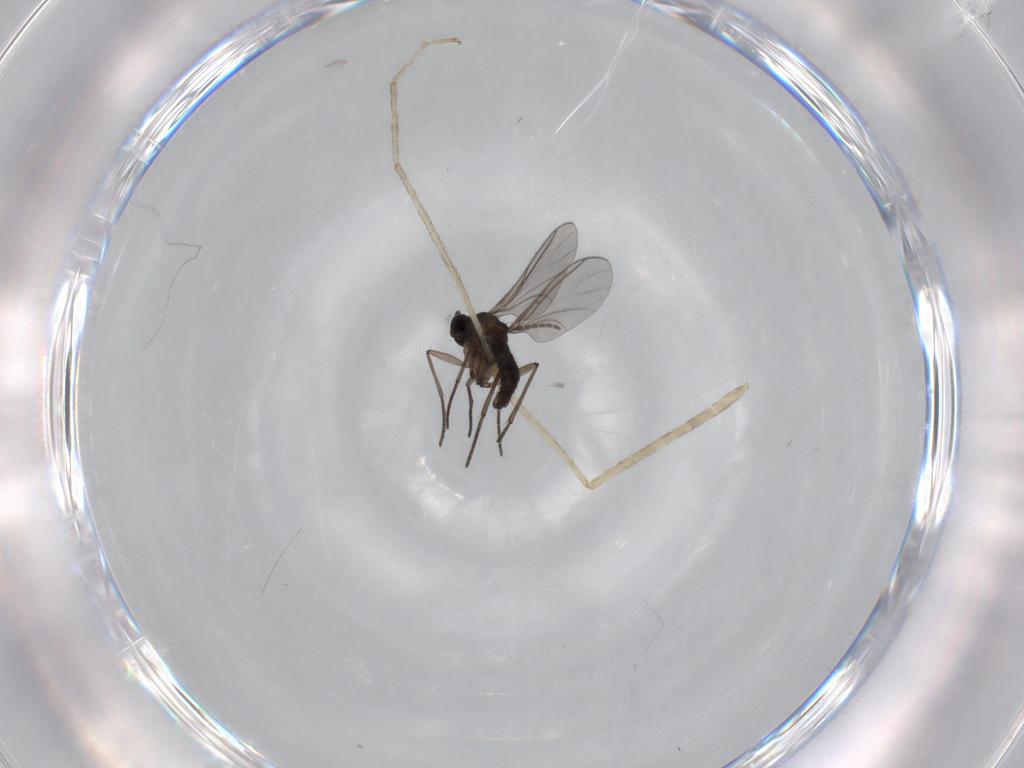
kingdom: Animalia
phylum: Arthropoda
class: Insecta
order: Diptera
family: Cecidomyiidae
